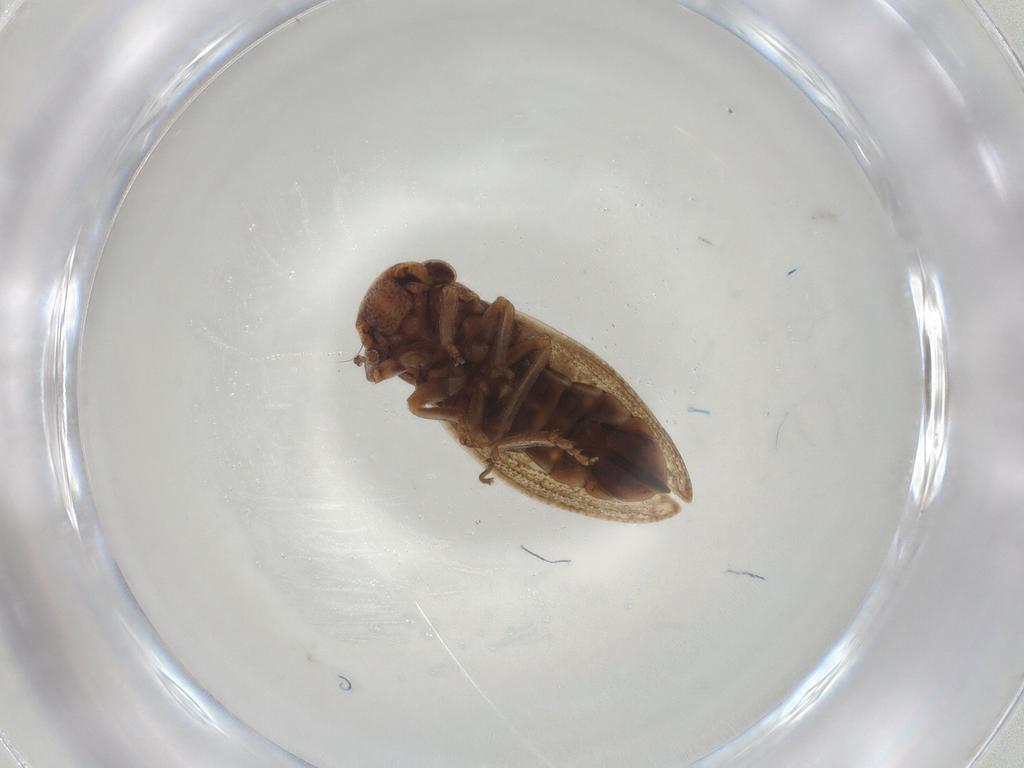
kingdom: Animalia
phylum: Arthropoda
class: Insecta
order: Hemiptera
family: Cicadellidae
